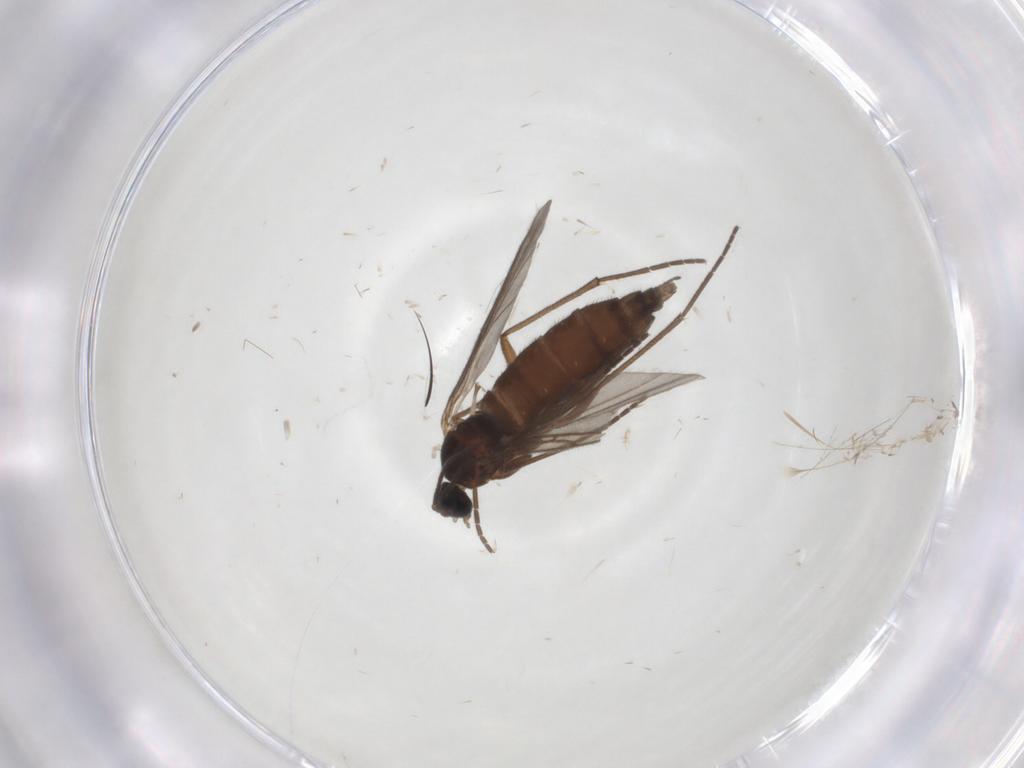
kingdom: Animalia
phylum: Arthropoda
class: Insecta
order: Diptera
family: Sciaridae
